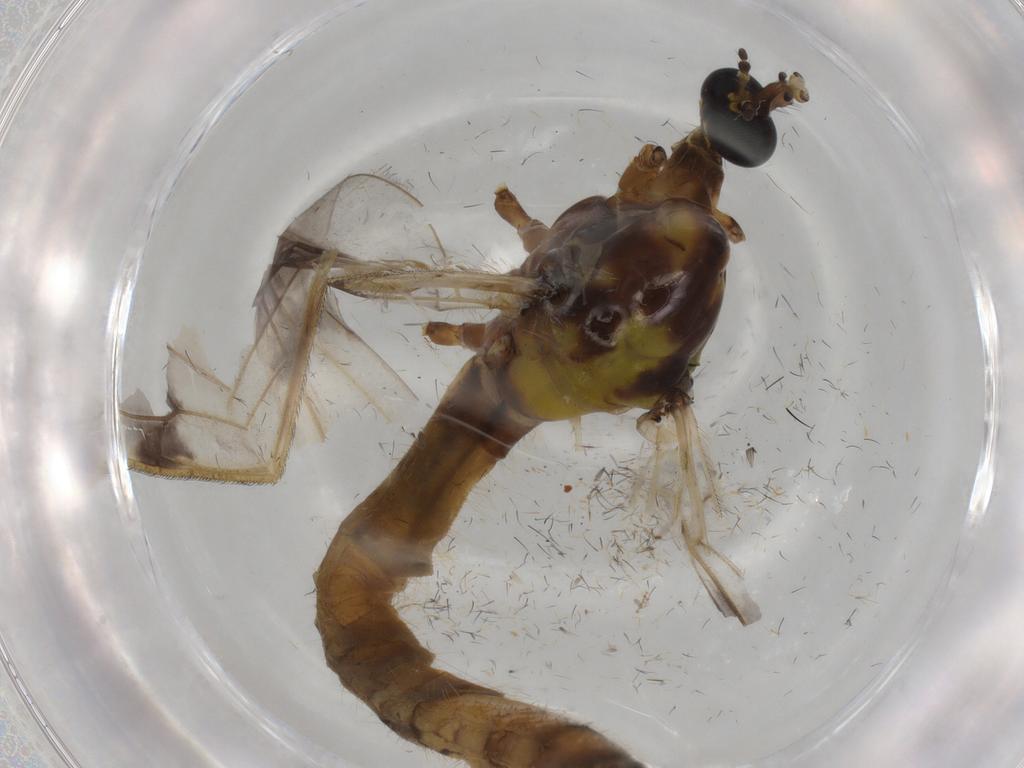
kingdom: Animalia
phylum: Arthropoda
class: Insecta
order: Diptera
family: Limoniidae
